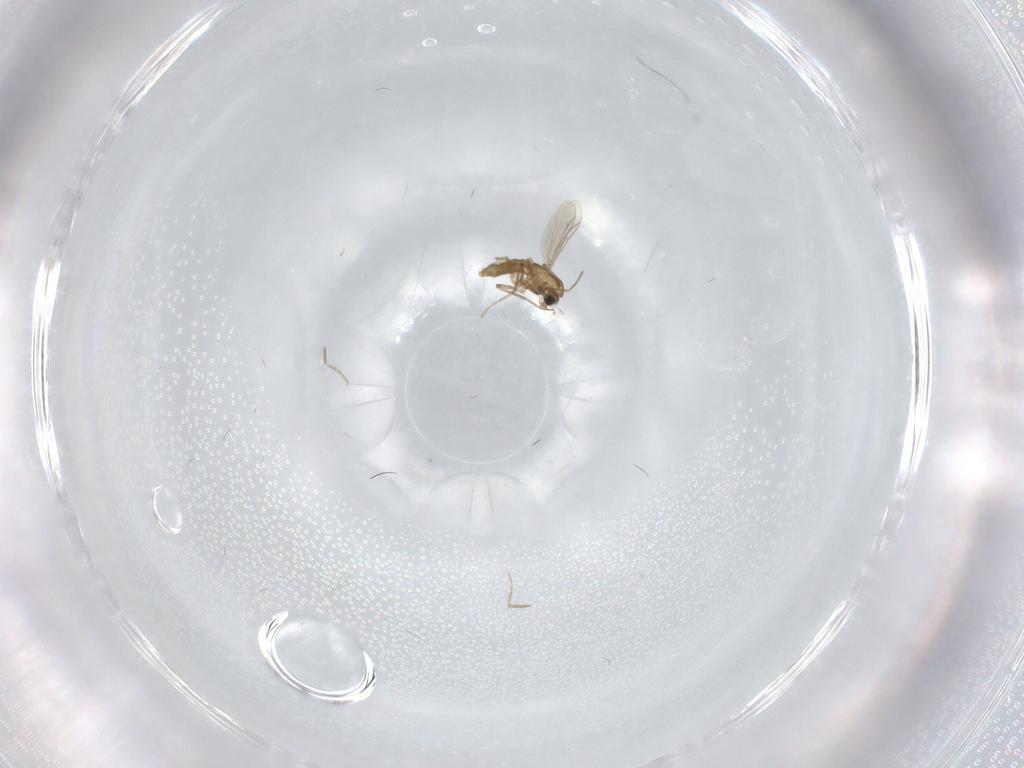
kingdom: Animalia
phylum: Arthropoda
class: Insecta
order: Diptera
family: Chironomidae
